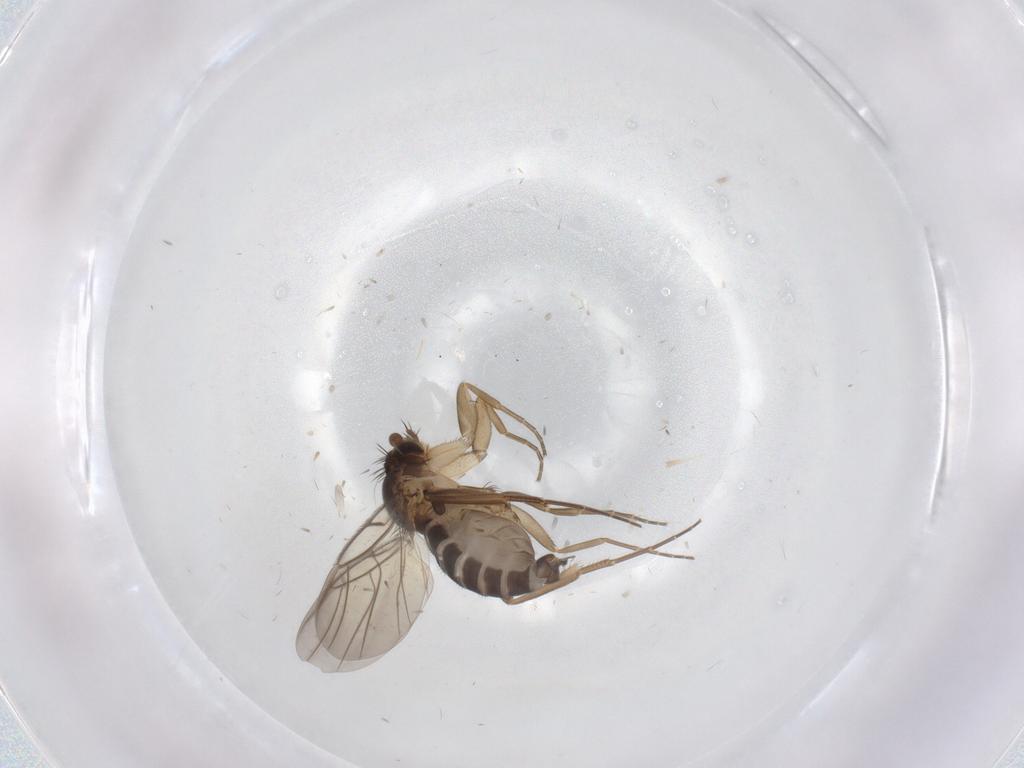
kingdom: Animalia
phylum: Arthropoda
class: Insecta
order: Diptera
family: Phoridae
